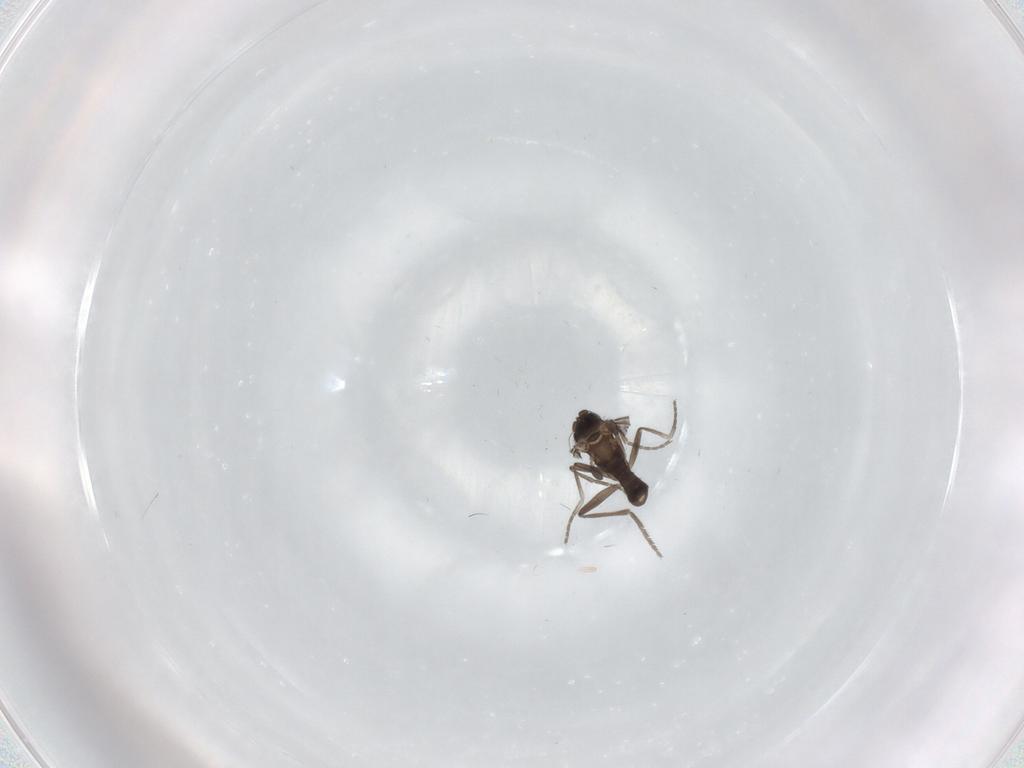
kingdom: Animalia
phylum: Arthropoda
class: Insecta
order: Diptera
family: Phoridae
